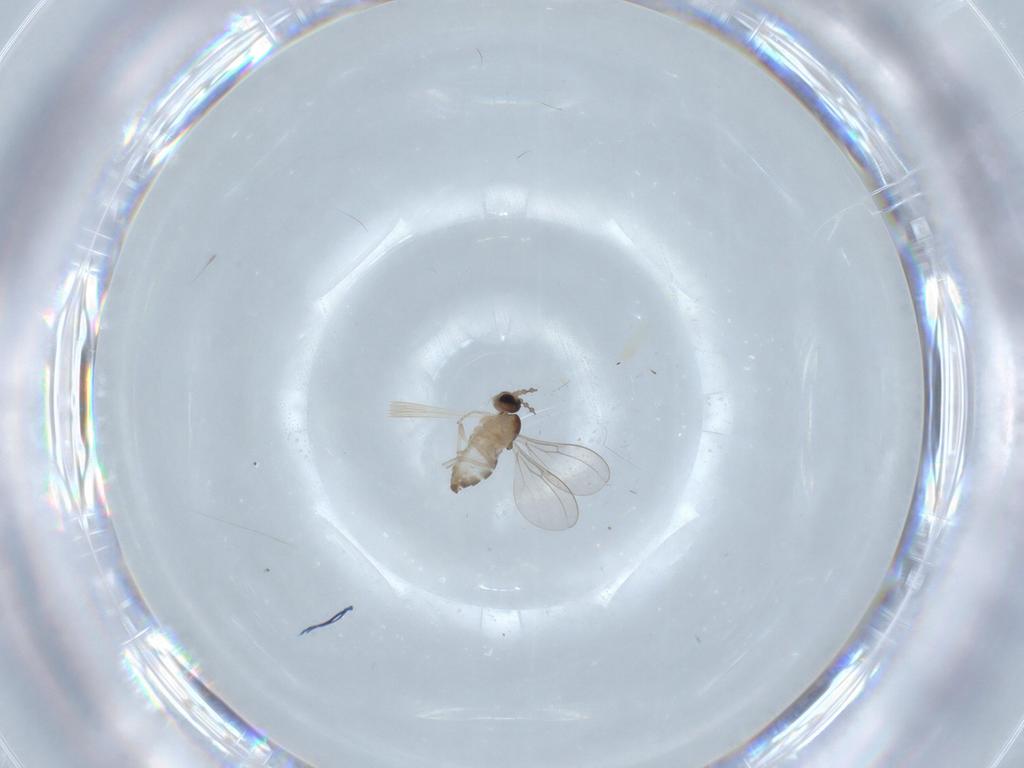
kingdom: Animalia
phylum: Arthropoda
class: Insecta
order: Diptera
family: Cecidomyiidae
